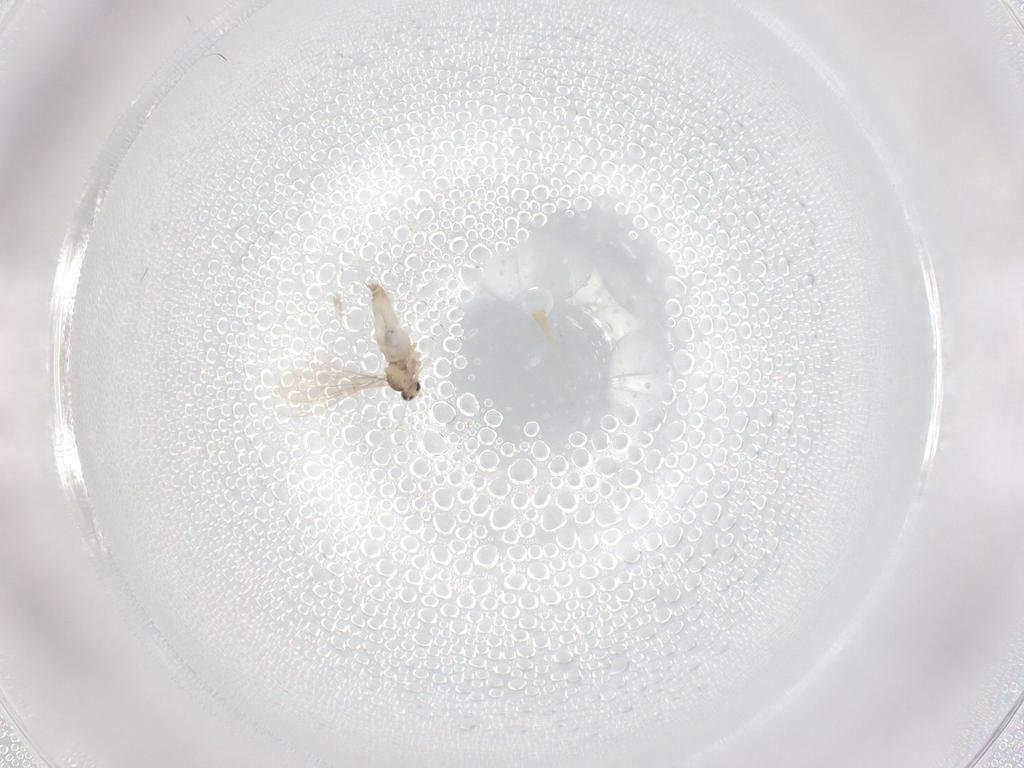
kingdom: Animalia
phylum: Arthropoda
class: Insecta
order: Diptera
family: Cecidomyiidae
